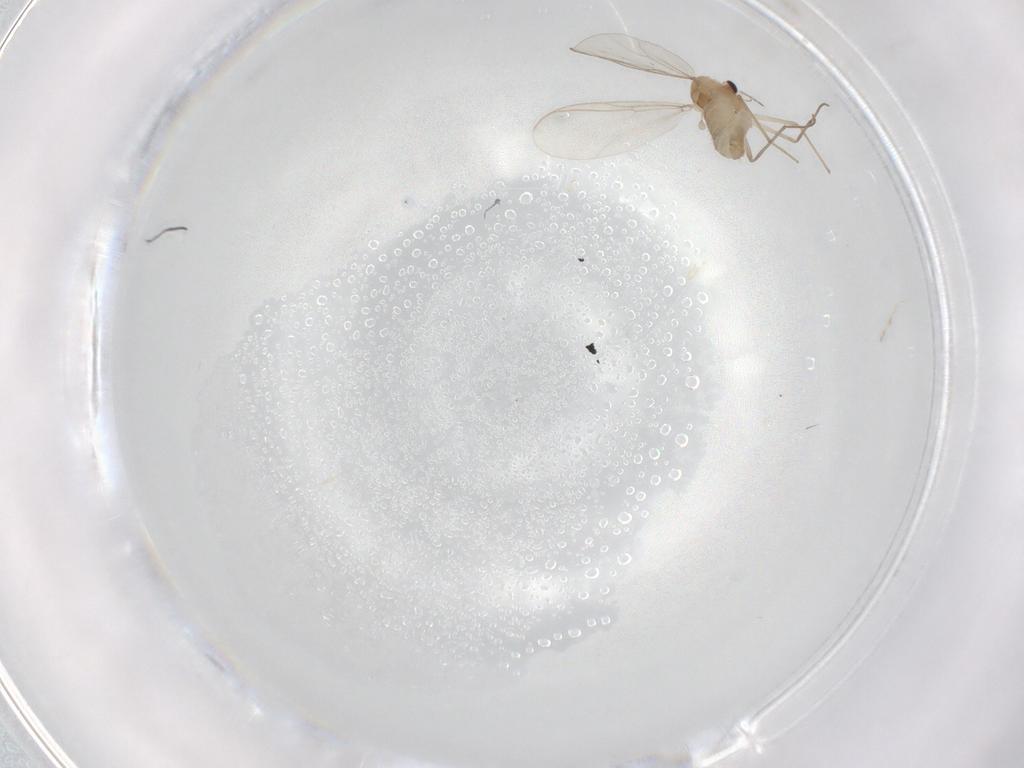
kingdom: Animalia
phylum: Arthropoda
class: Insecta
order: Diptera
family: Chironomidae
